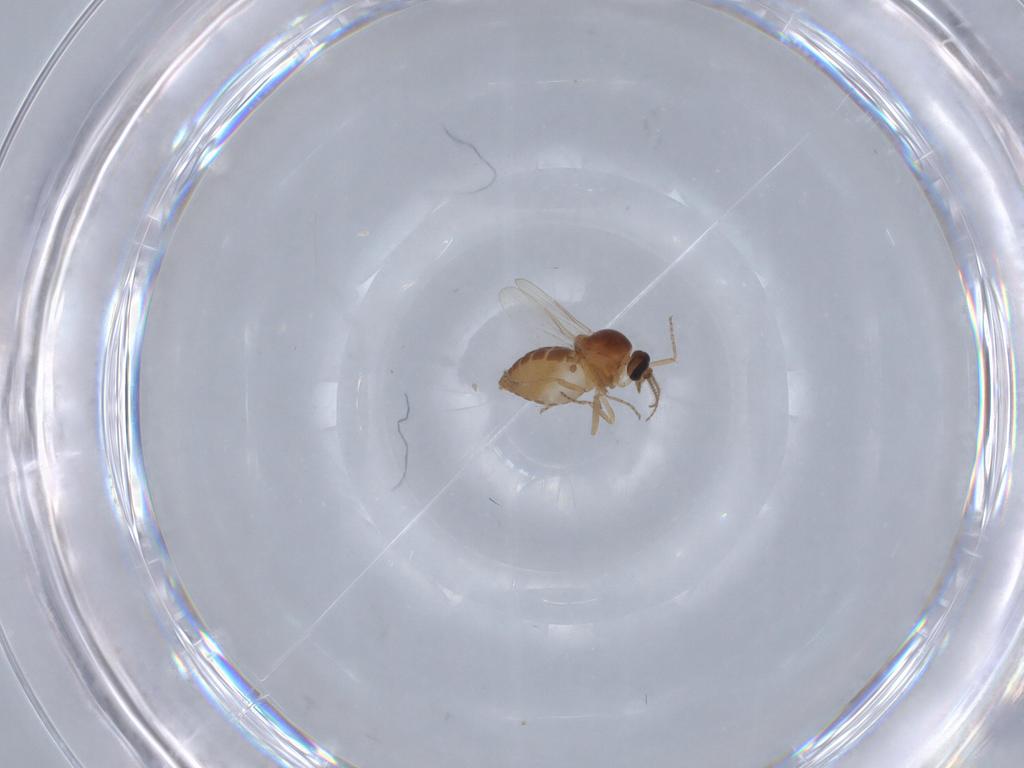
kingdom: Animalia
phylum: Arthropoda
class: Insecta
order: Diptera
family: Ceratopogonidae
